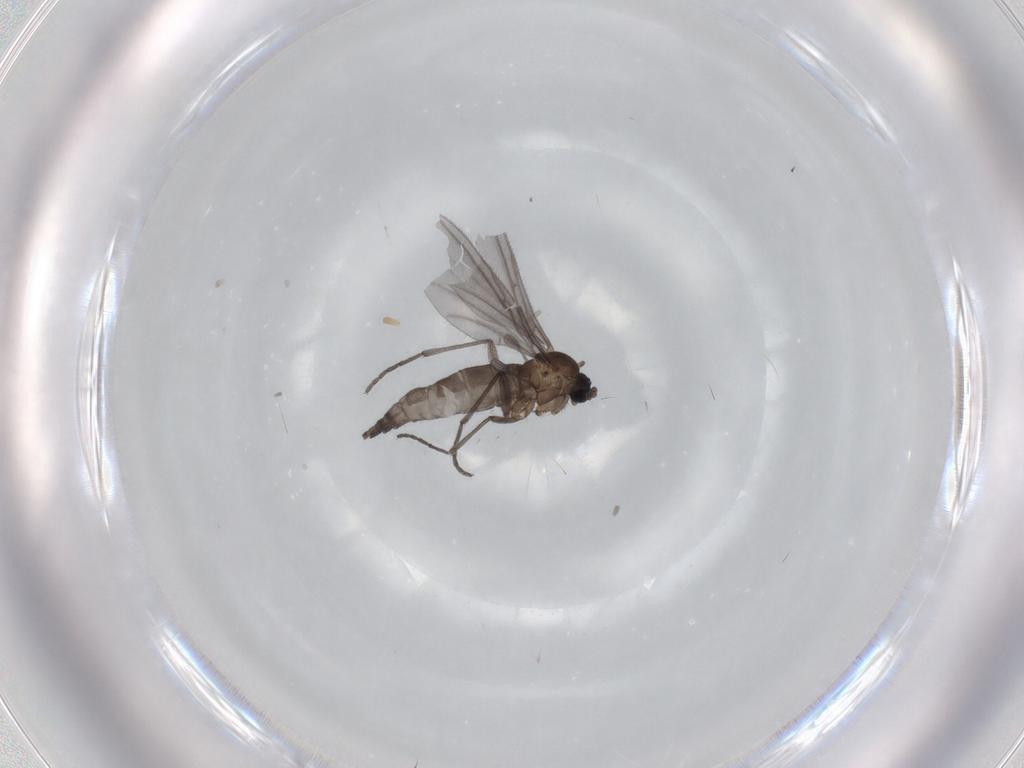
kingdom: Animalia
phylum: Arthropoda
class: Insecta
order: Diptera
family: Sciaridae
